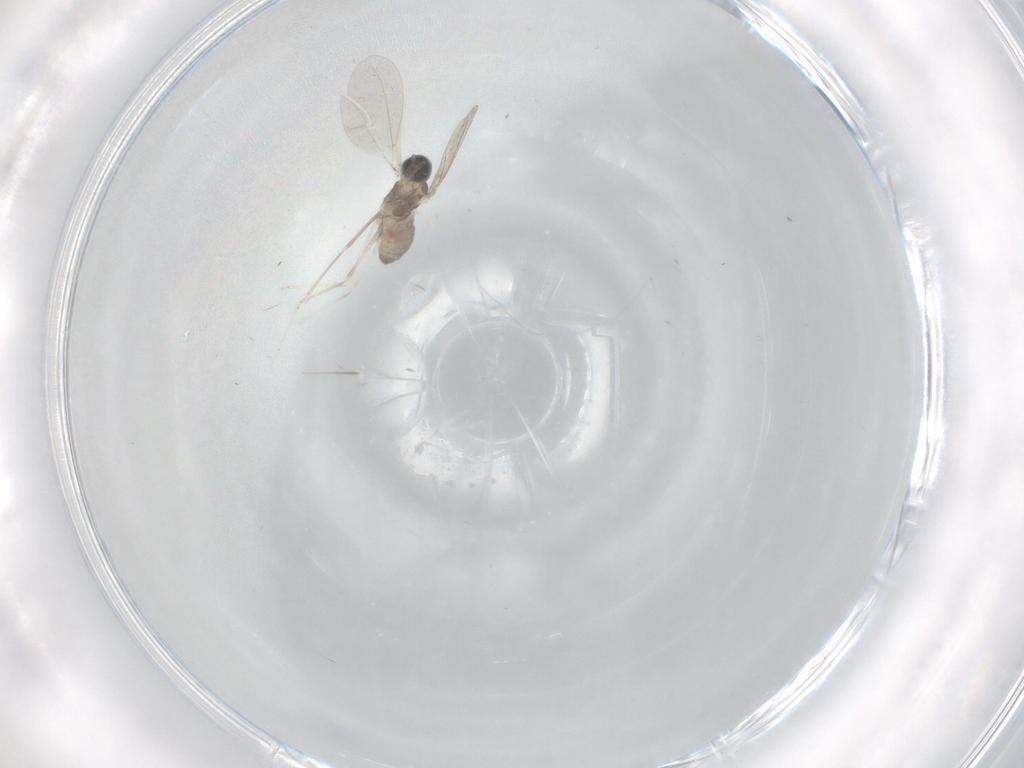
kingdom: Animalia
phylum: Arthropoda
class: Insecta
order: Diptera
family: Cecidomyiidae
